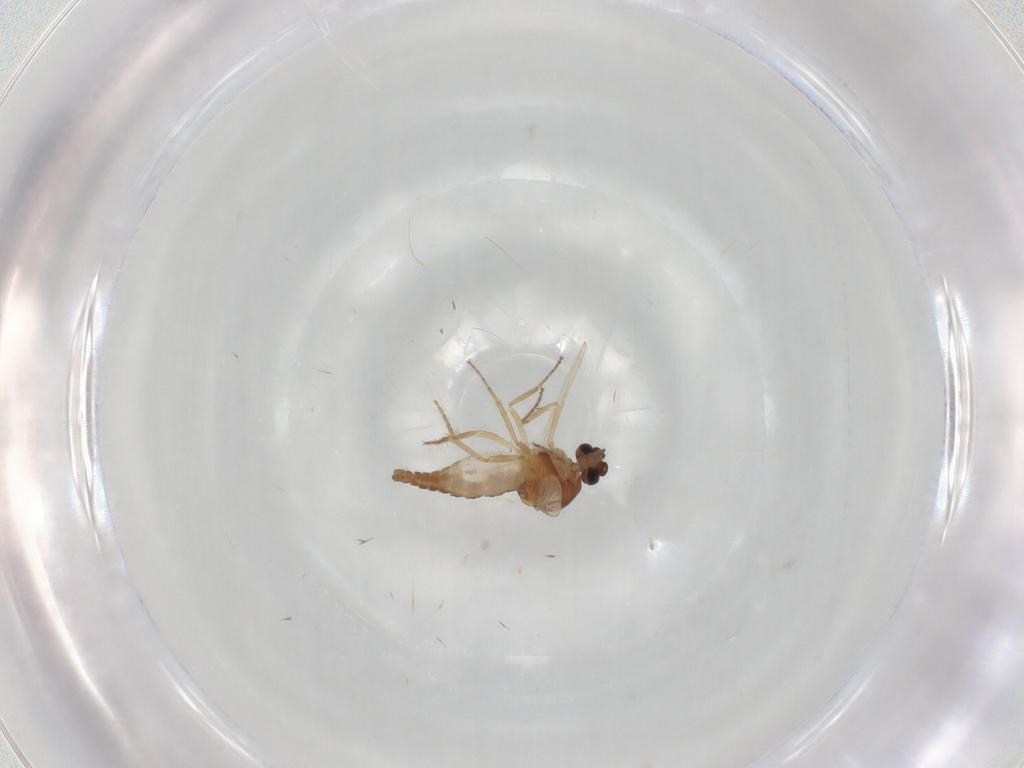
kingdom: Animalia
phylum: Arthropoda
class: Insecta
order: Diptera
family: Ceratopogonidae
